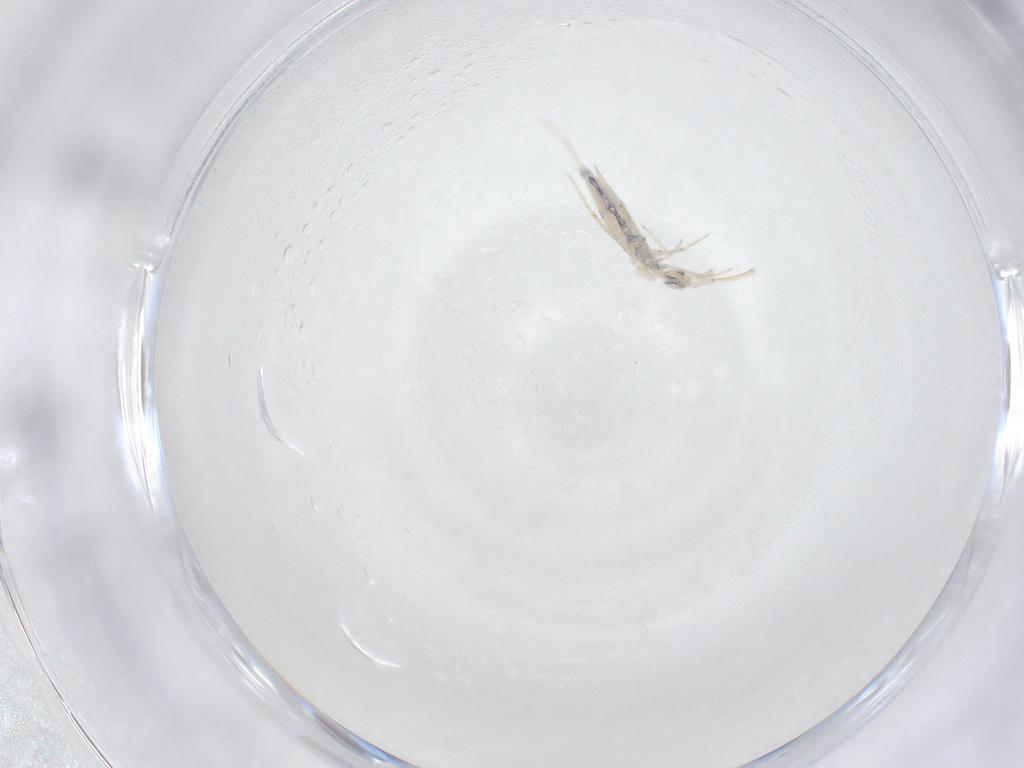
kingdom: Animalia
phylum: Arthropoda
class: Collembola
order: Entomobryomorpha
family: Entomobryidae
